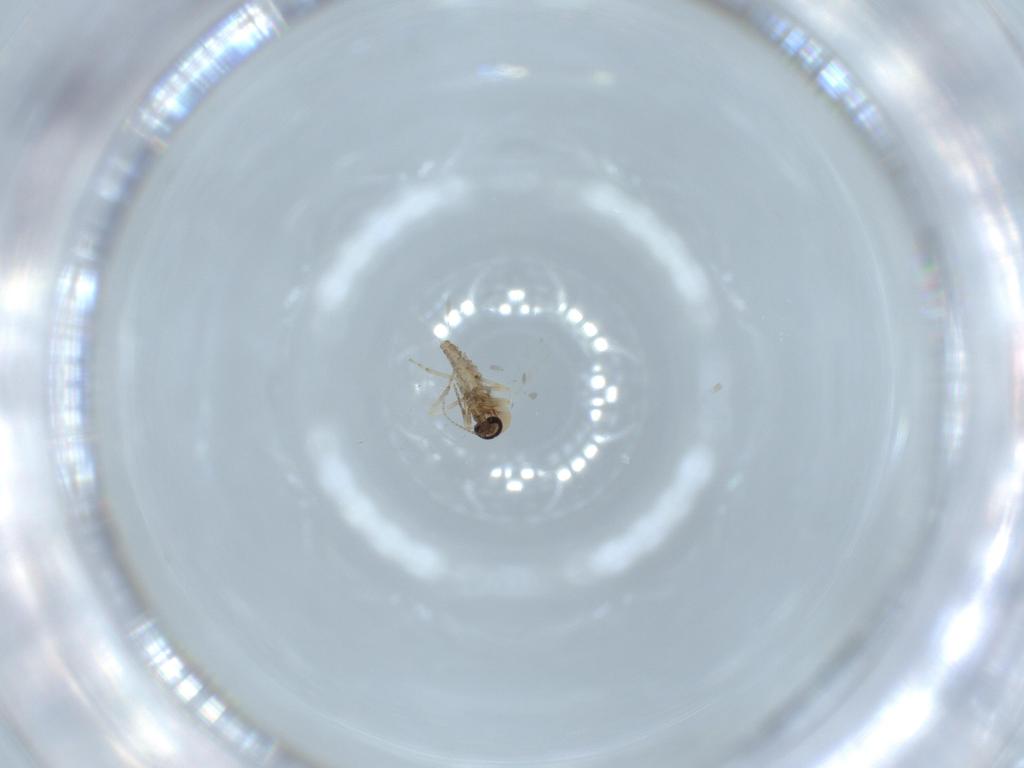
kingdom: Animalia
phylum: Arthropoda
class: Insecta
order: Diptera
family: Ceratopogonidae
